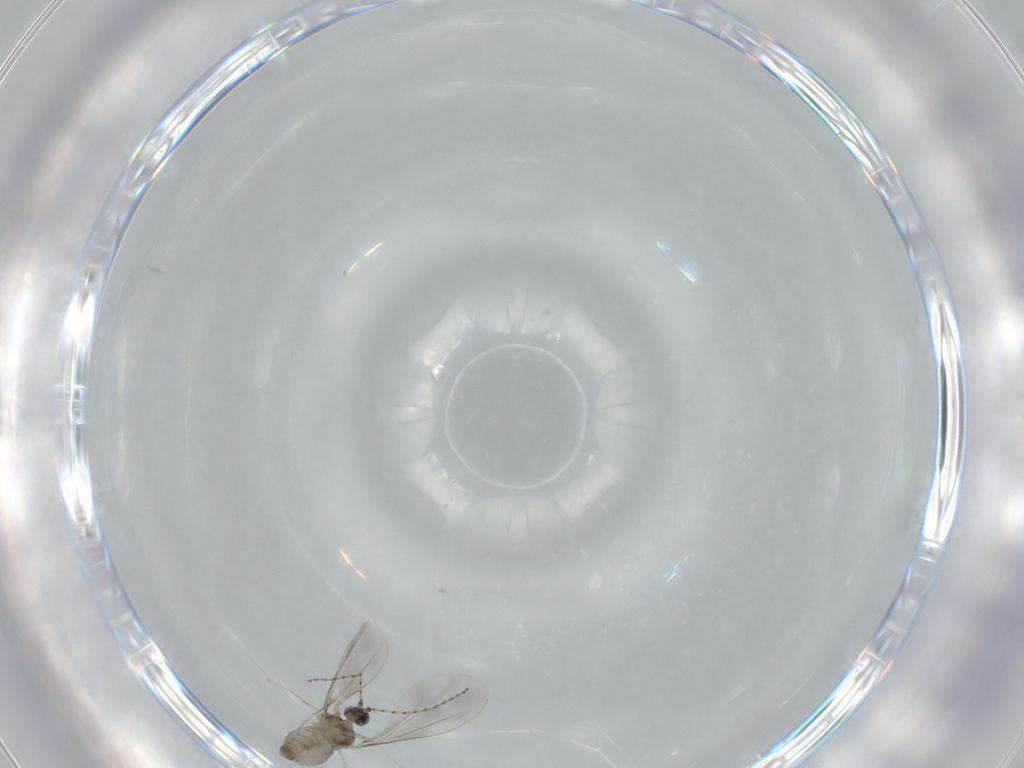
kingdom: Animalia
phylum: Arthropoda
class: Insecta
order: Diptera
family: Cecidomyiidae
